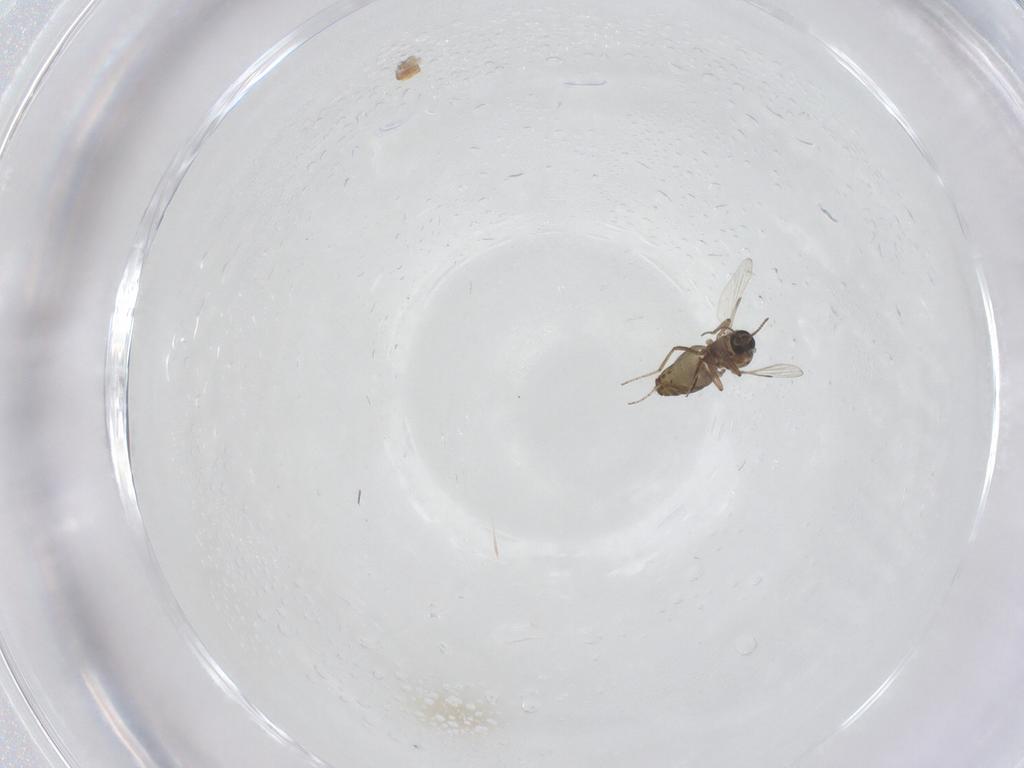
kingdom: Animalia
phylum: Arthropoda
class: Insecta
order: Diptera
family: Ceratopogonidae
